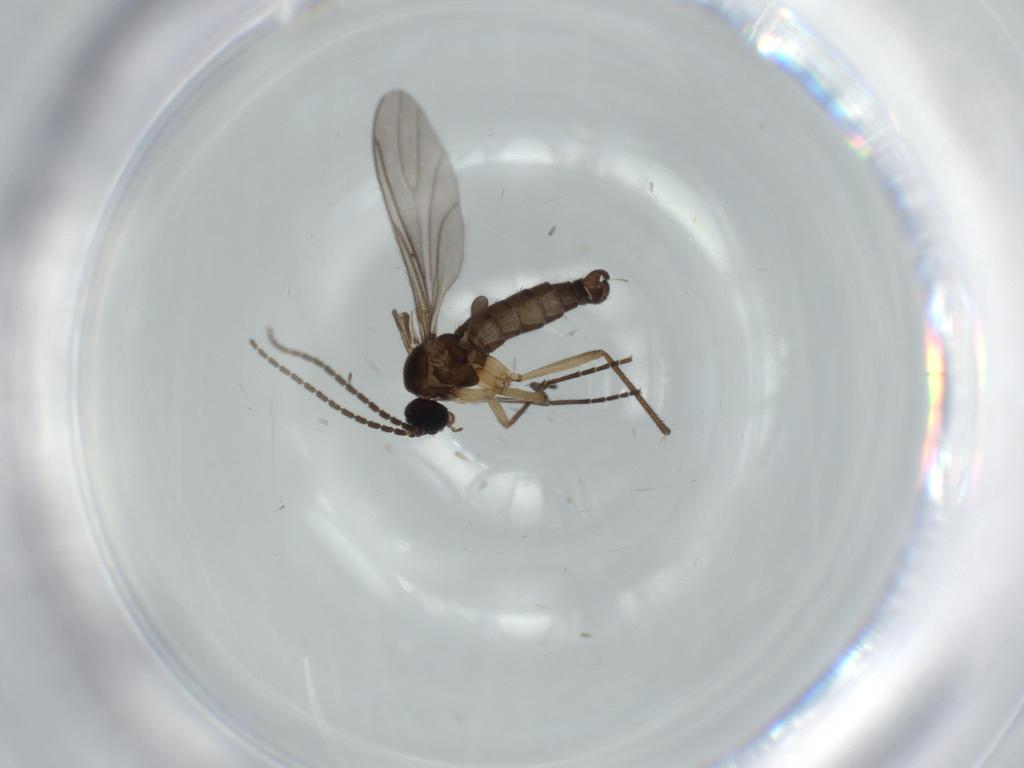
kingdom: Animalia
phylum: Arthropoda
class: Insecta
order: Diptera
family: Sciaridae
